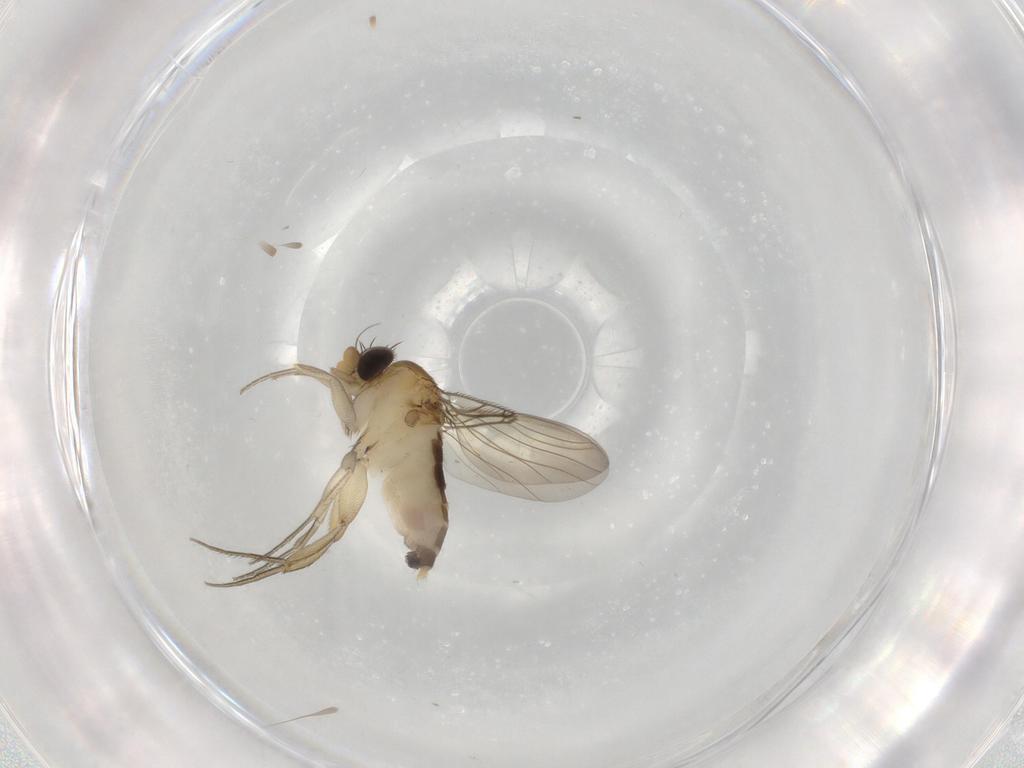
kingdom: Animalia
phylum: Arthropoda
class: Insecta
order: Diptera
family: Phoridae
